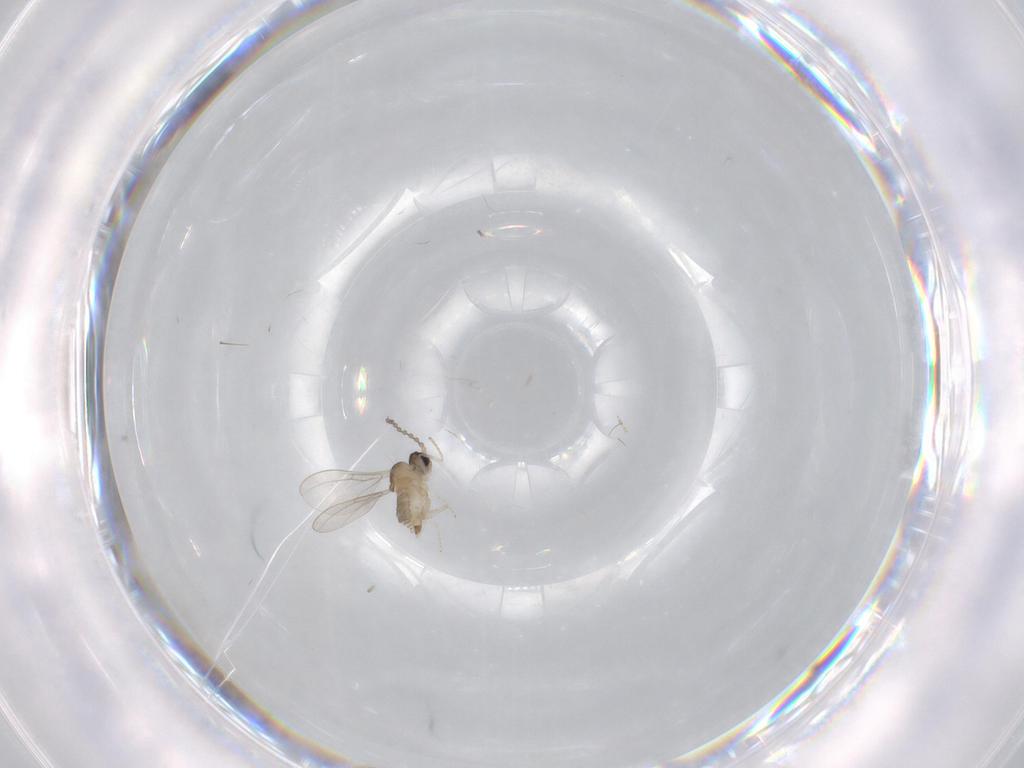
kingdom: Animalia
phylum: Arthropoda
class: Insecta
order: Diptera
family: Cecidomyiidae
